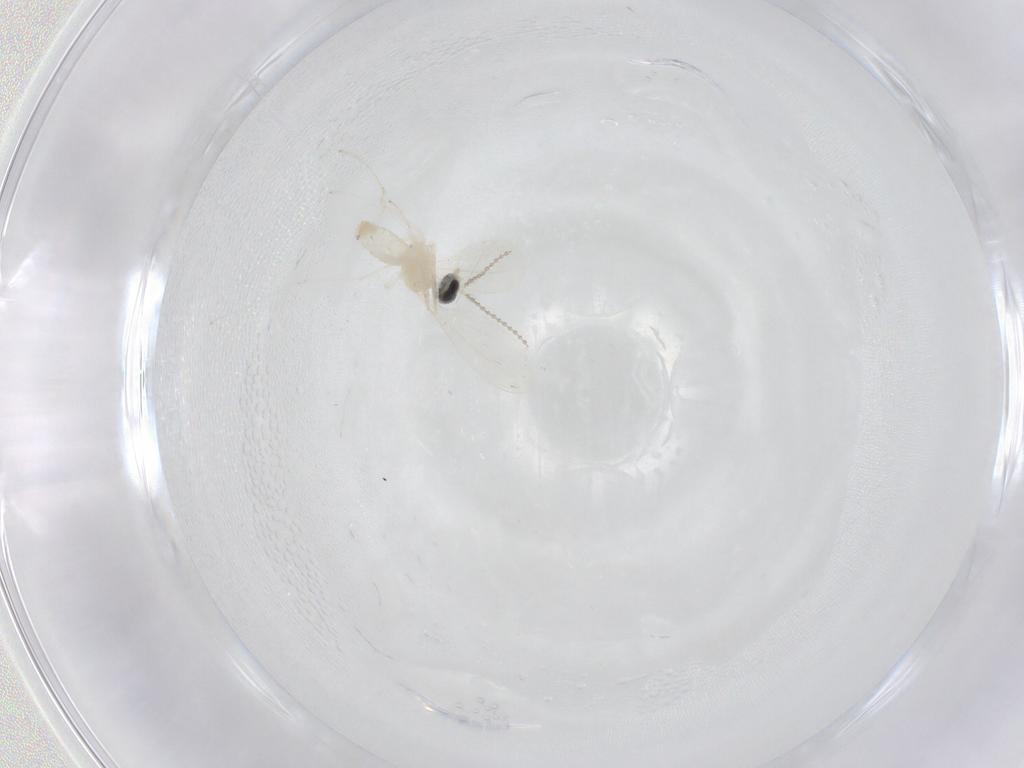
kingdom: Animalia
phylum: Arthropoda
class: Insecta
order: Diptera
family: Cecidomyiidae
